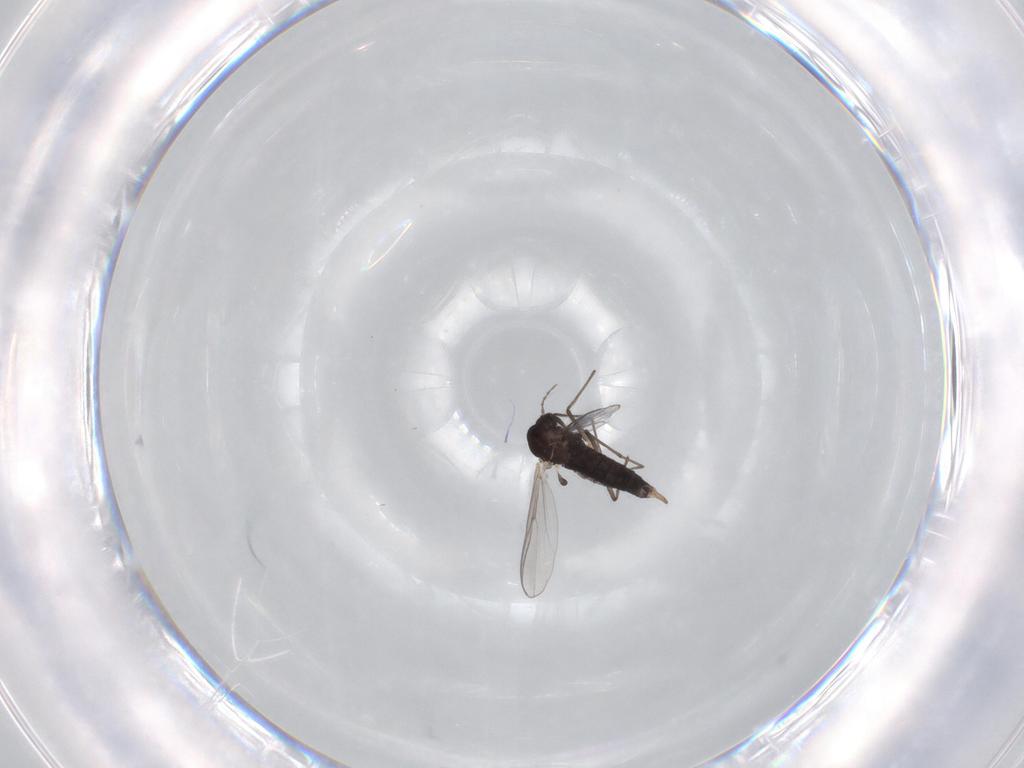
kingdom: Animalia
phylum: Arthropoda
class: Insecta
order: Diptera
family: Chironomidae
